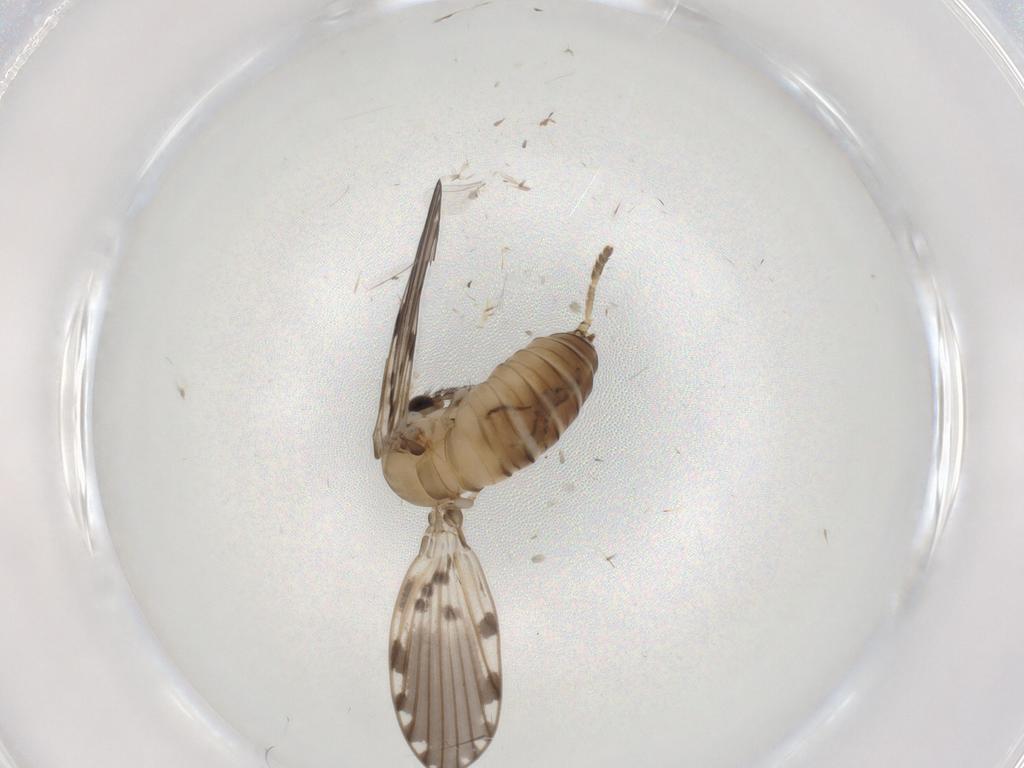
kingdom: Animalia
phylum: Arthropoda
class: Insecta
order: Diptera
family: Psychodidae
